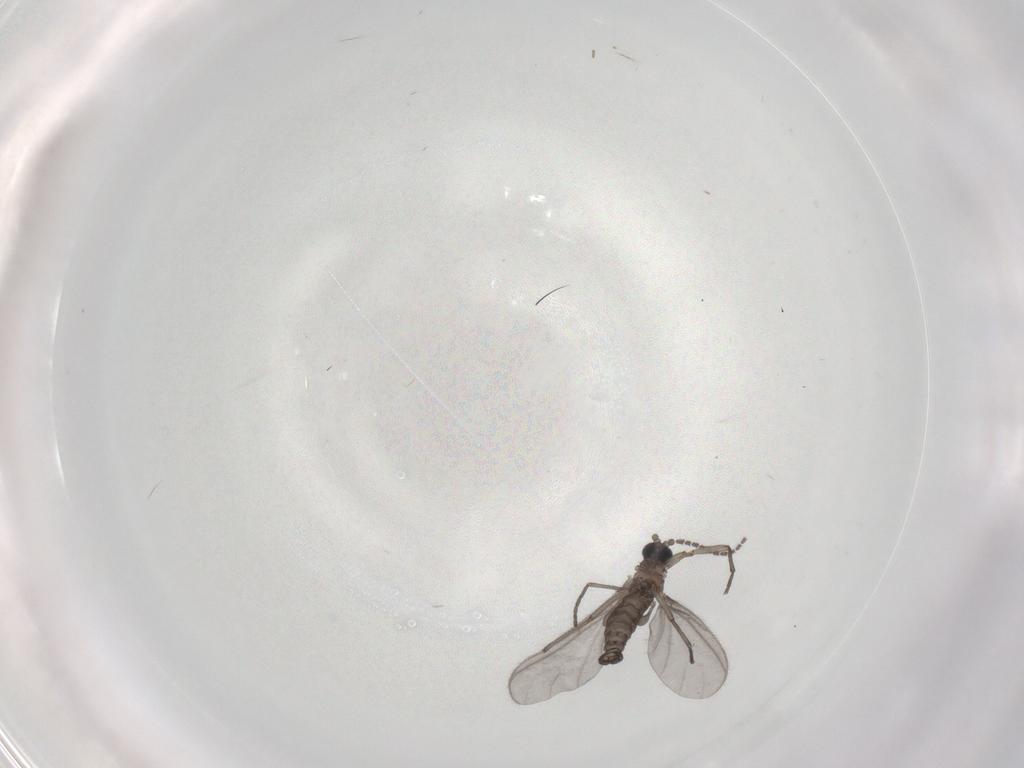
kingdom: Animalia
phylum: Arthropoda
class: Insecta
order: Diptera
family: Sciaridae
